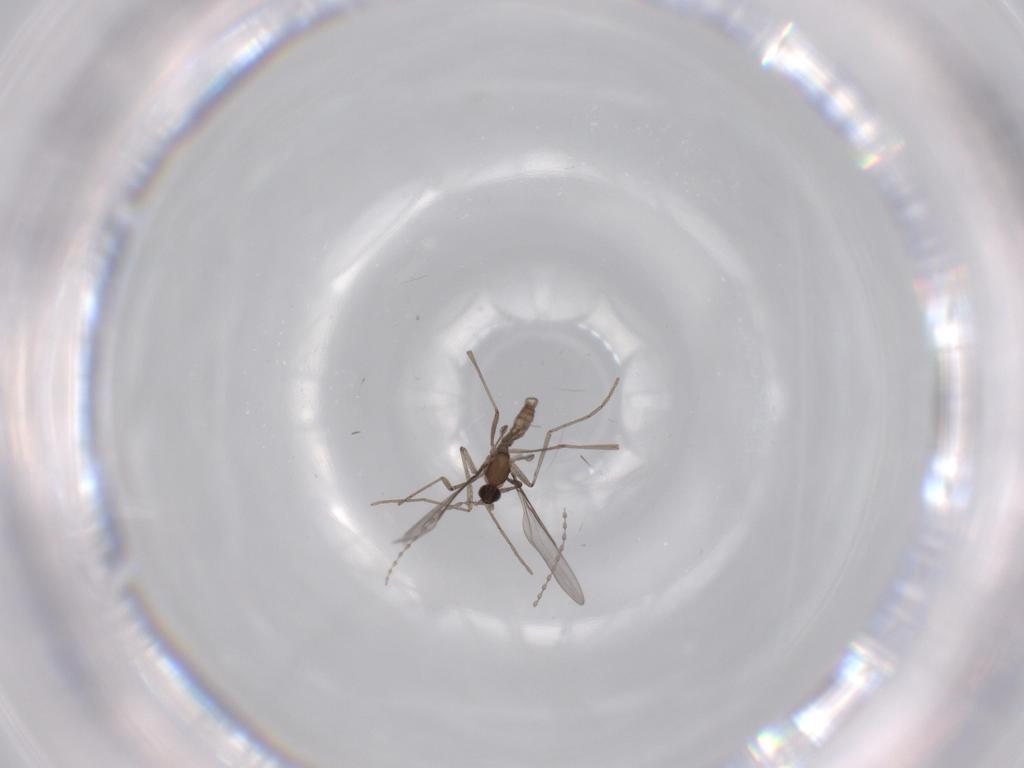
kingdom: Animalia
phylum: Arthropoda
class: Insecta
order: Diptera
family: Cecidomyiidae
